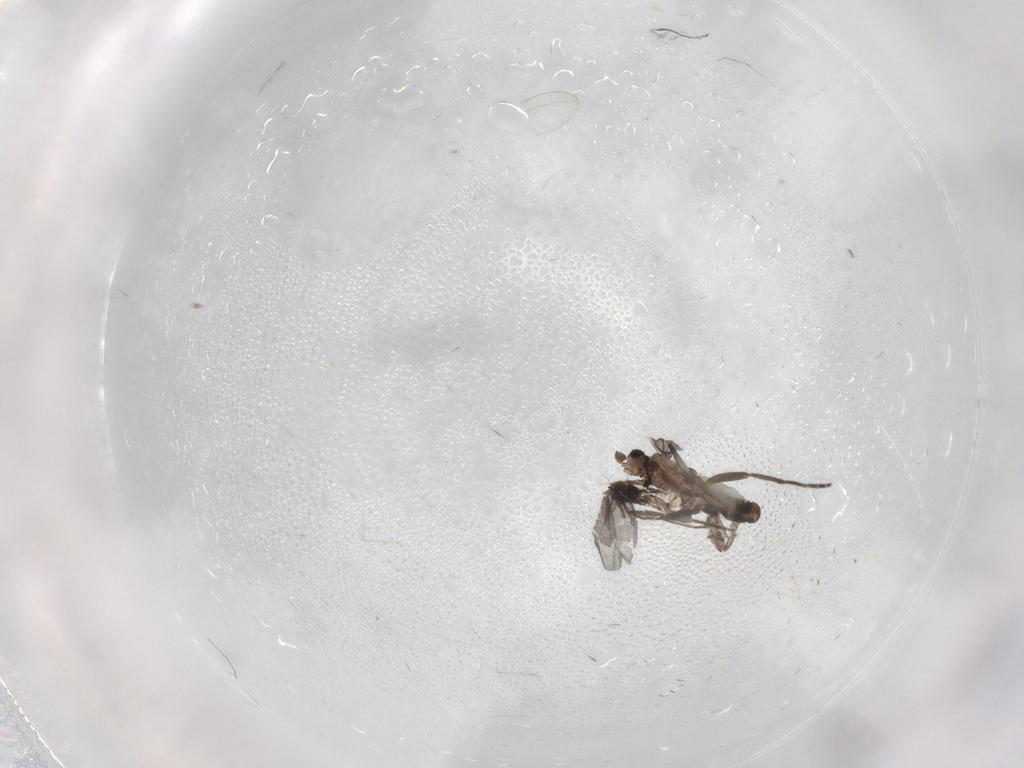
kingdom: Animalia
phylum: Arthropoda
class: Insecta
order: Diptera
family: Phoridae
